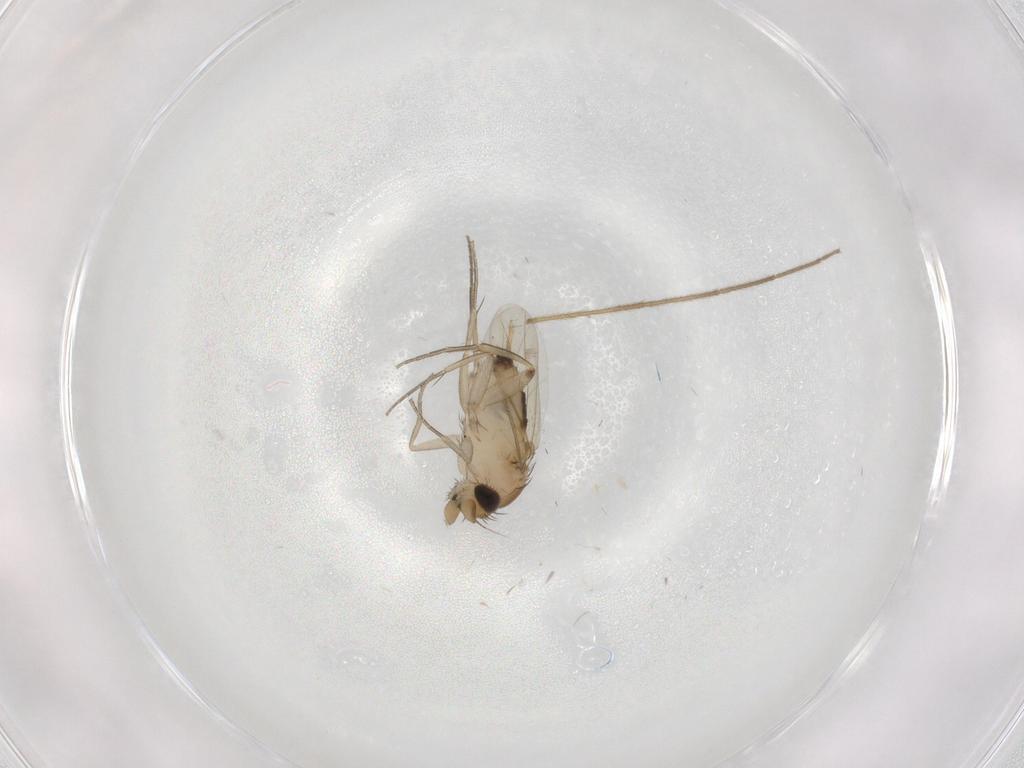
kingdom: Animalia
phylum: Arthropoda
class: Insecta
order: Diptera
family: Phoridae
